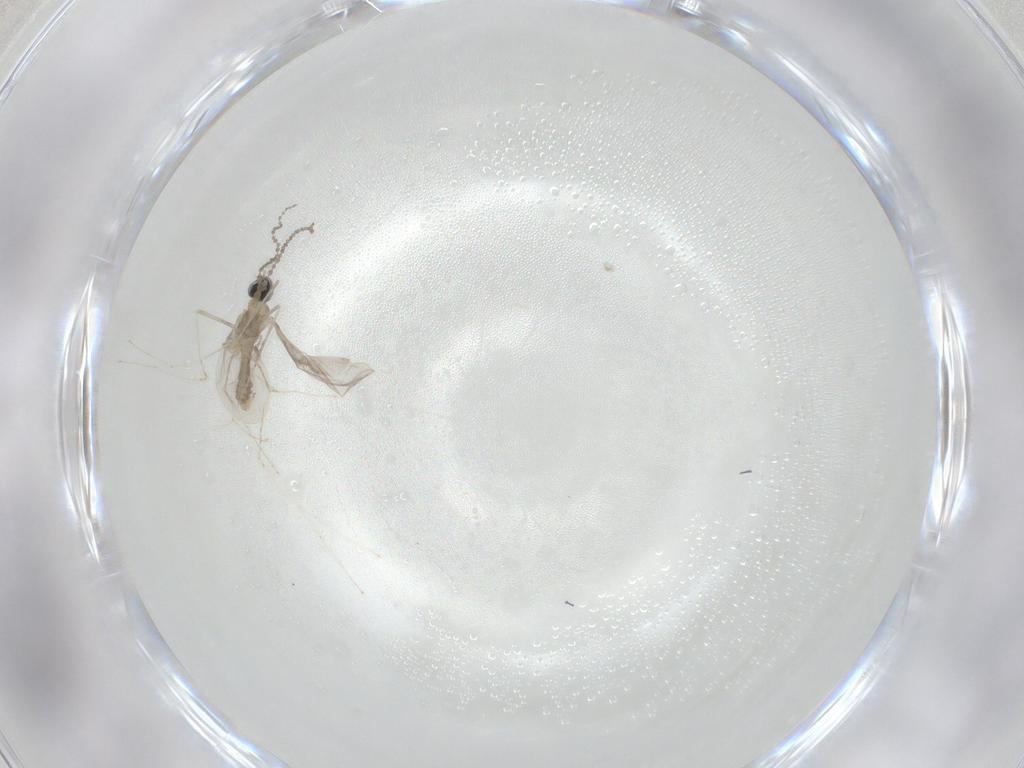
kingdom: Animalia
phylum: Arthropoda
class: Insecta
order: Diptera
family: Cecidomyiidae
